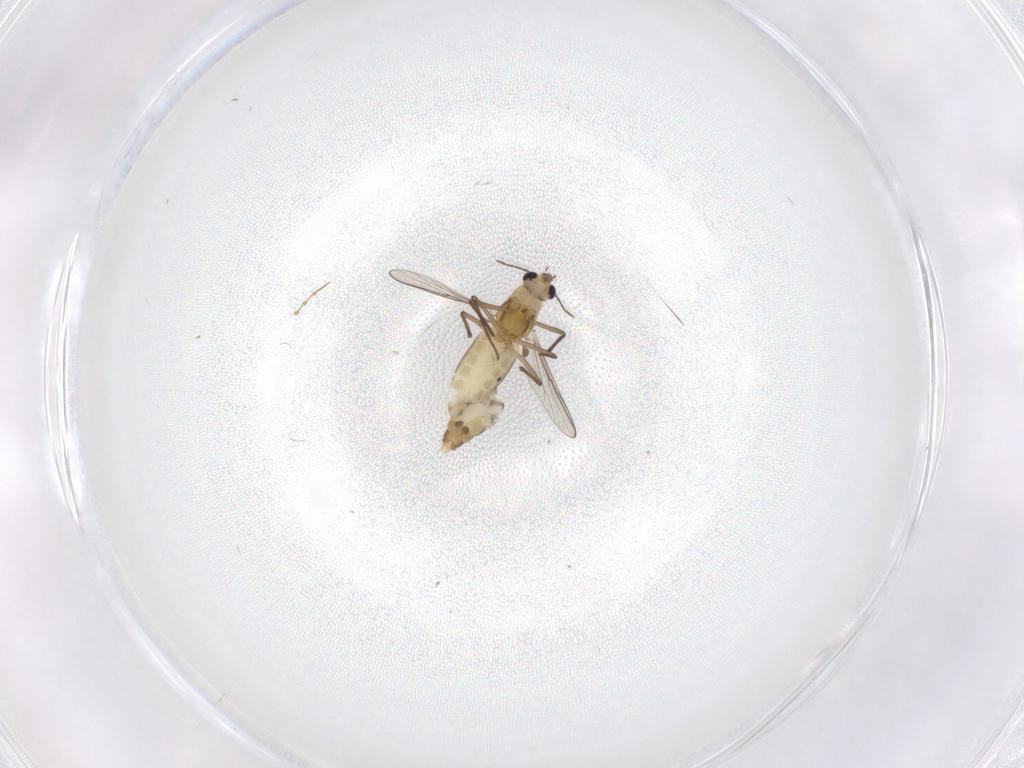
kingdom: Animalia
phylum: Arthropoda
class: Insecta
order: Diptera
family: Chironomidae
